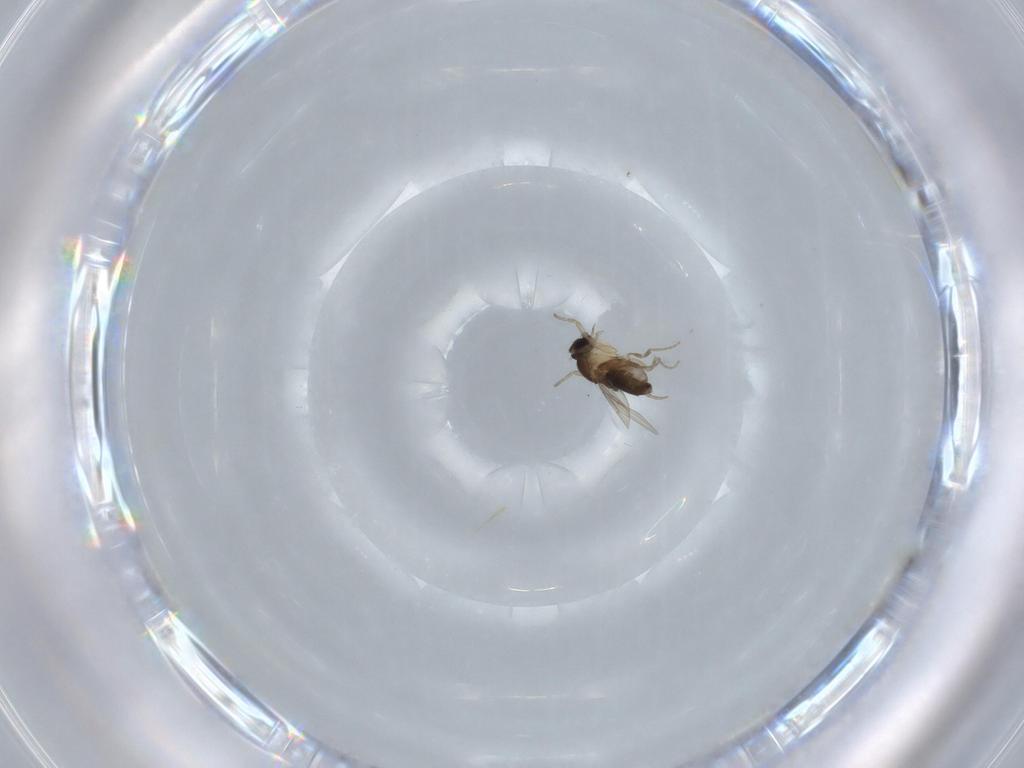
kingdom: Animalia
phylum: Arthropoda
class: Insecta
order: Diptera
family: Phoridae
